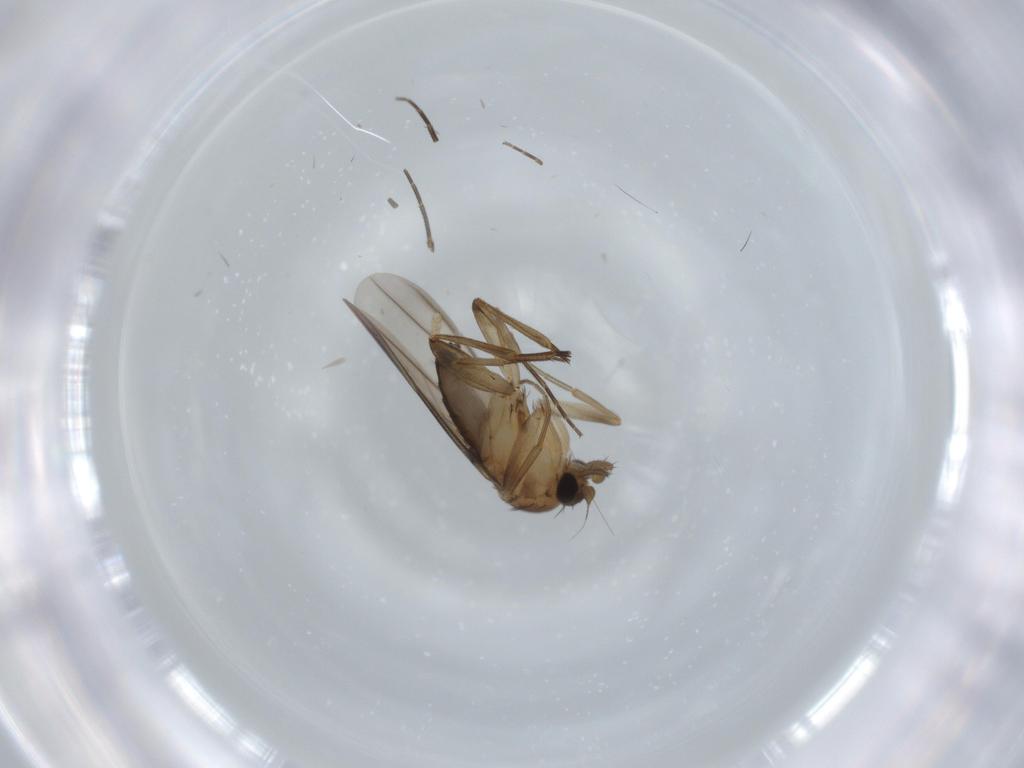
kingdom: Animalia
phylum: Arthropoda
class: Insecta
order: Diptera
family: Phoridae
